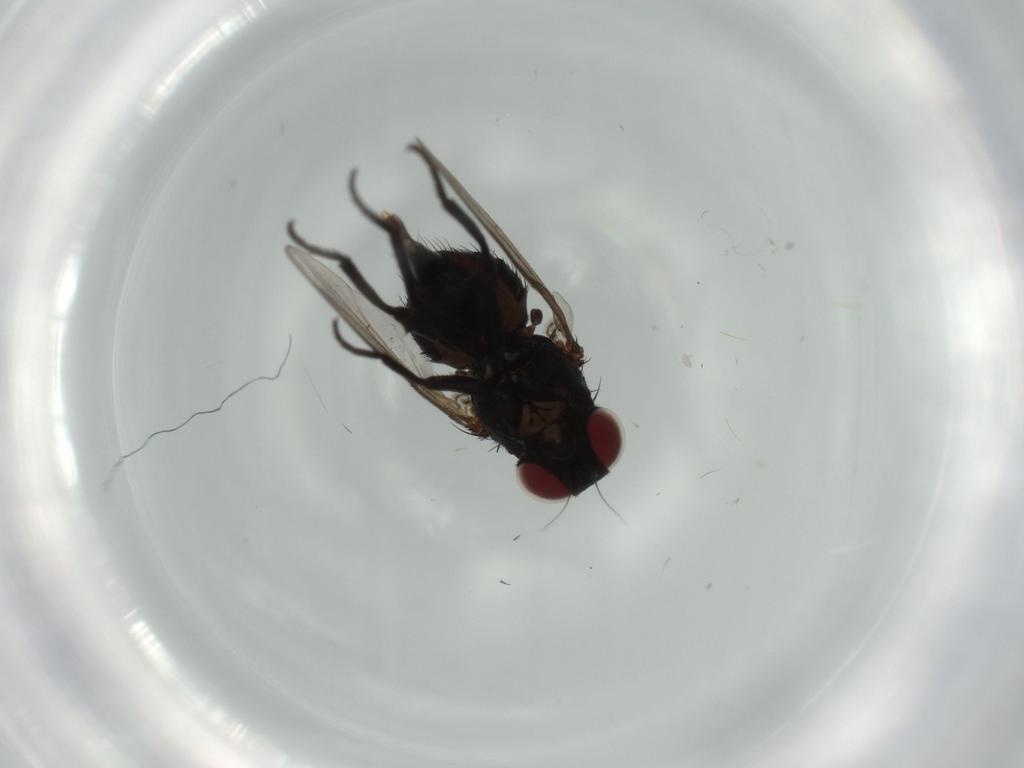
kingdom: Animalia
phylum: Arthropoda
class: Insecta
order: Diptera
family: Agromyzidae
